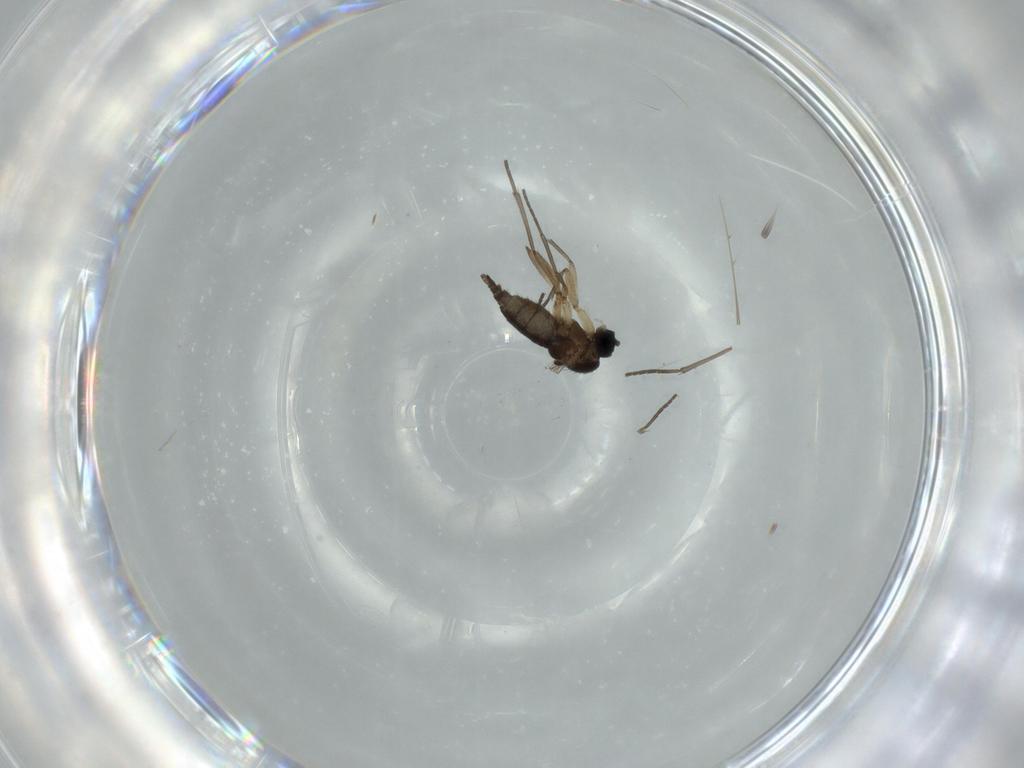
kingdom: Animalia
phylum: Arthropoda
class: Insecta
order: Diptera
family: Sciaridae
